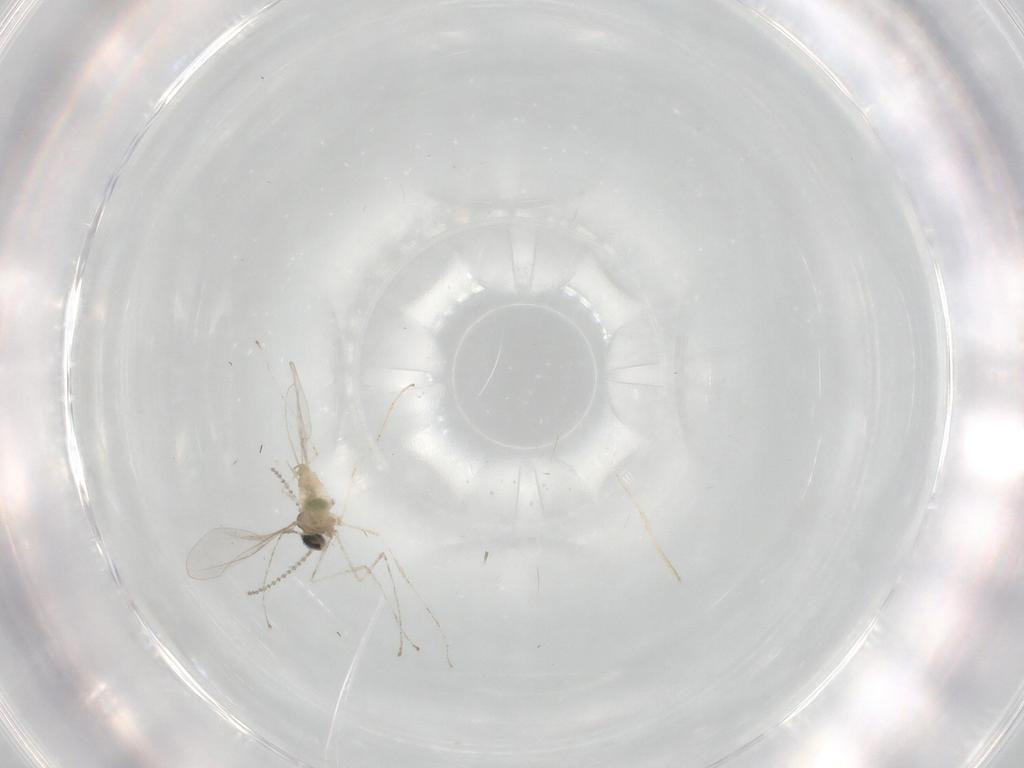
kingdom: Animalia
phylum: Arthropoda
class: Insecta
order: Diptera
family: Cecidomyiidae
